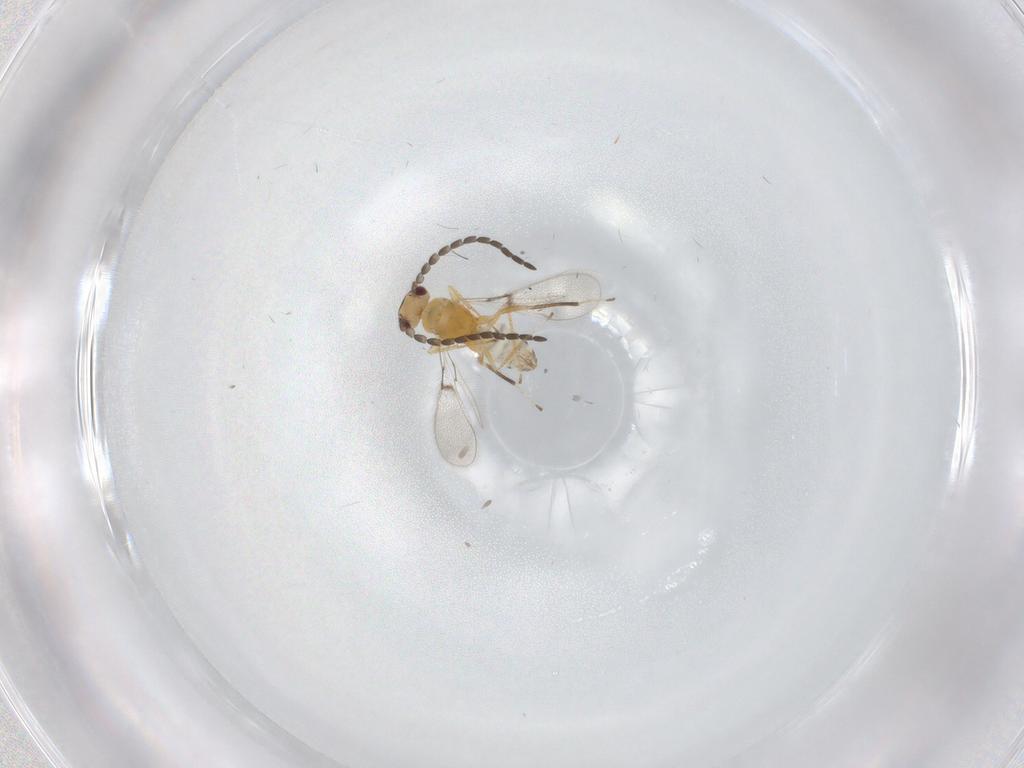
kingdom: Animalia
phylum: Arthropoda
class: Insecta
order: Hymenoptera
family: Mymaridae
